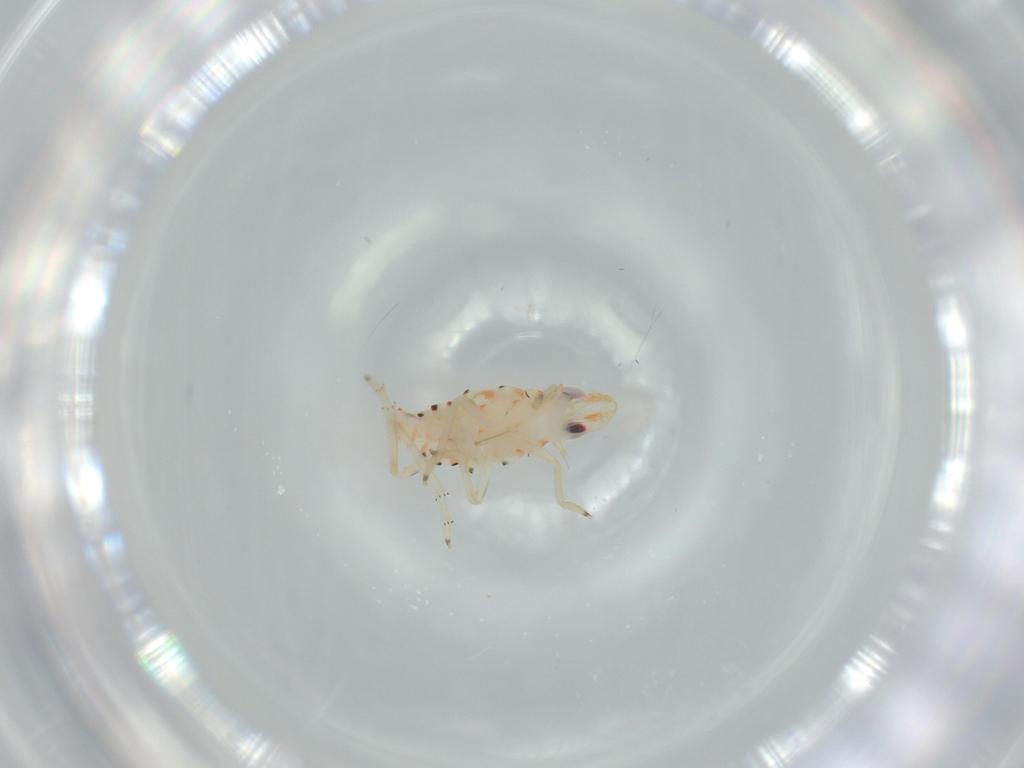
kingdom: Animalia
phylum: Arthropoda
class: Insecta
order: Hemiptera
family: Tropiduchidae
